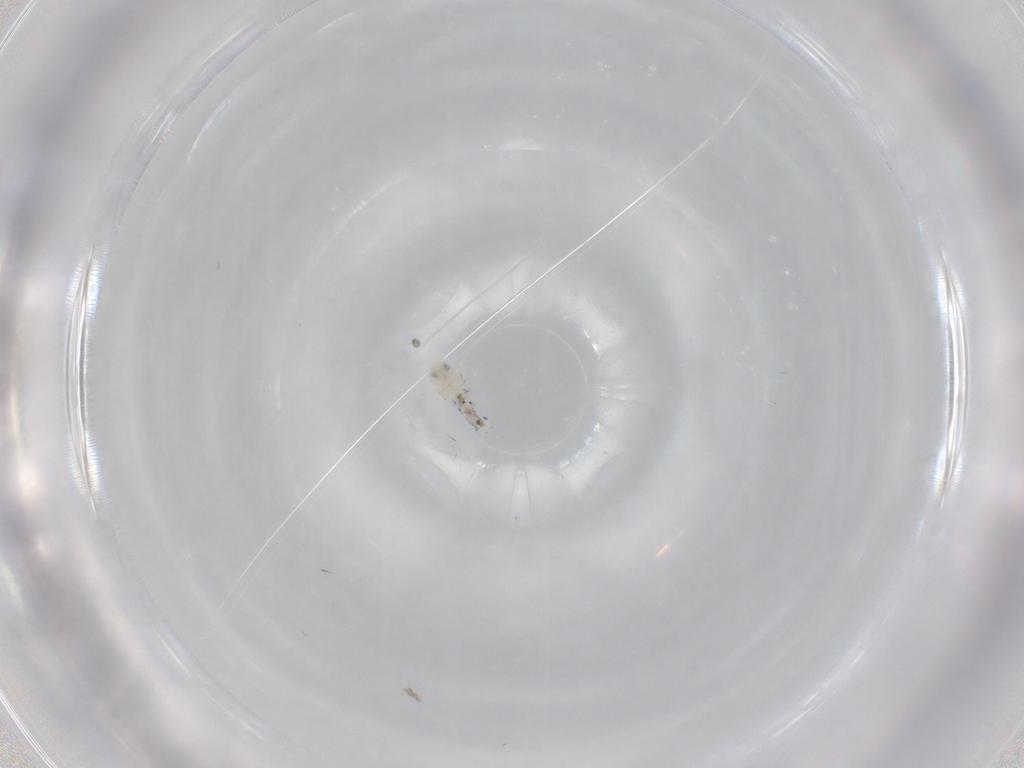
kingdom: Animalia
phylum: Arthropoda
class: Collembola
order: Entomobryomorpha
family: Entomobryidae
